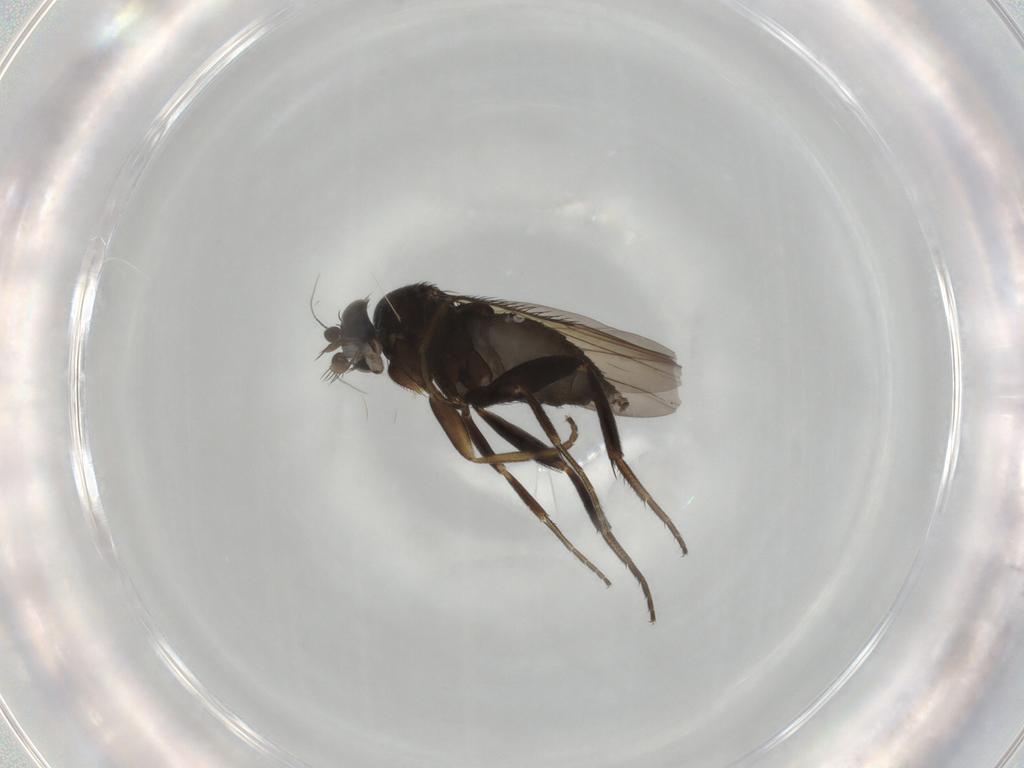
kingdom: Animalia
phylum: Arthropoda
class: Insecta
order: Diptera
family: Phoridae
